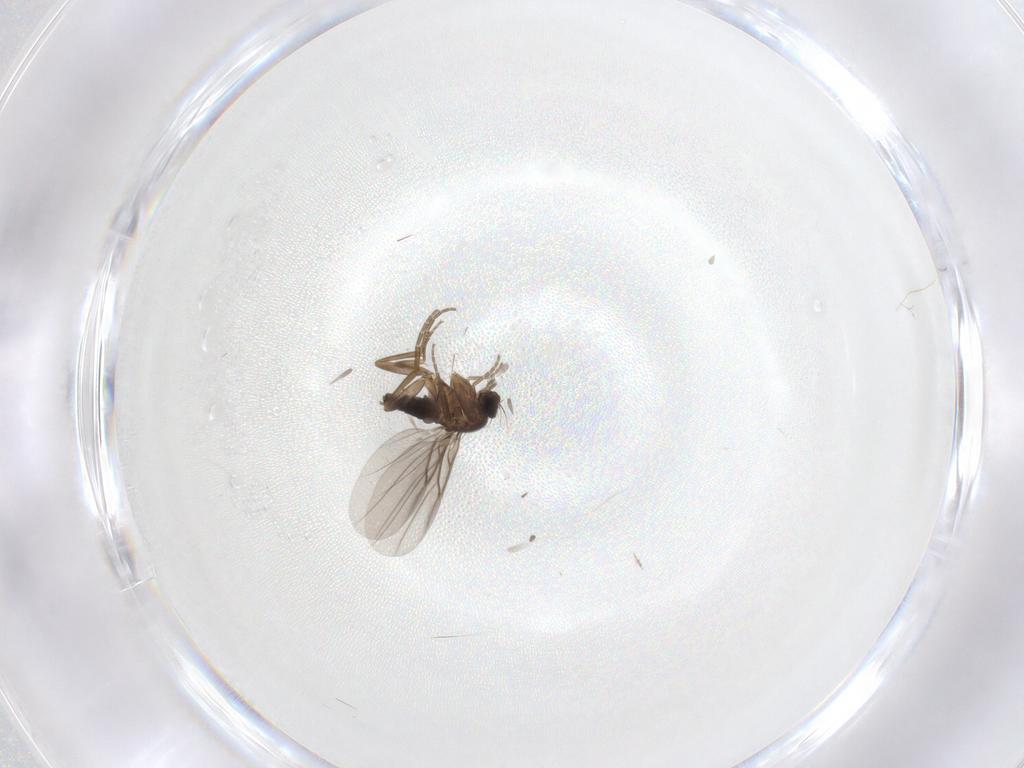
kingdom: Animalia
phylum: Arthropoda
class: Insecta
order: Diptera
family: Phoridae
